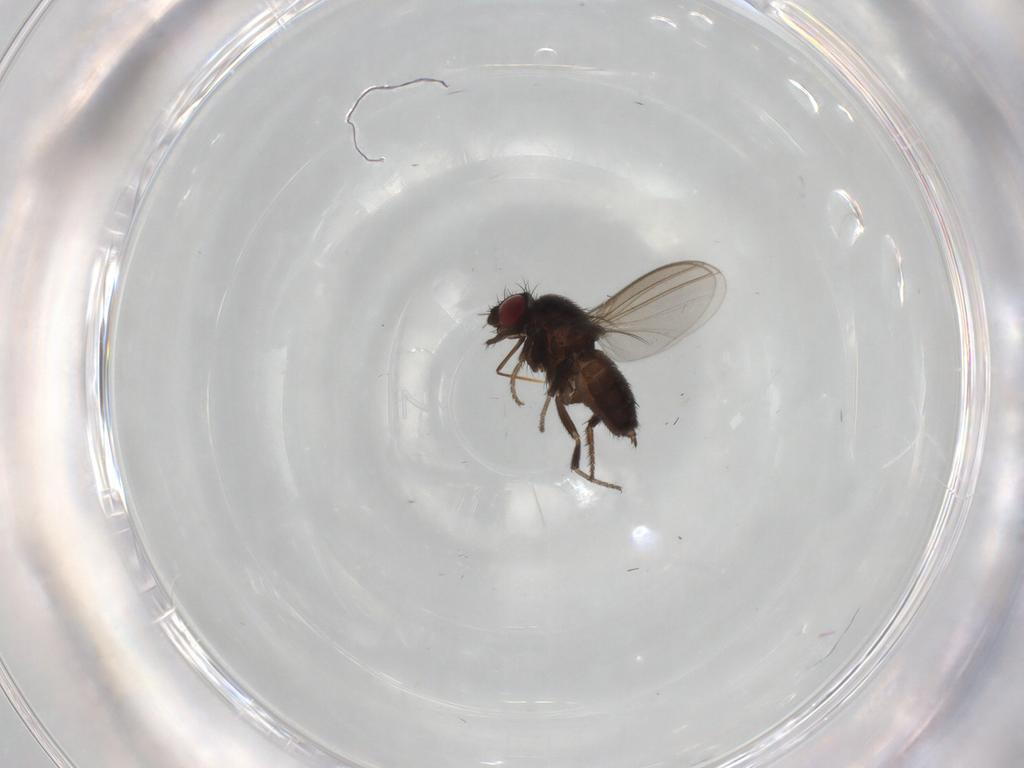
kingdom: Animalia
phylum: Arthropoda
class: Insecta
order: Diptera
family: Milichiidae
